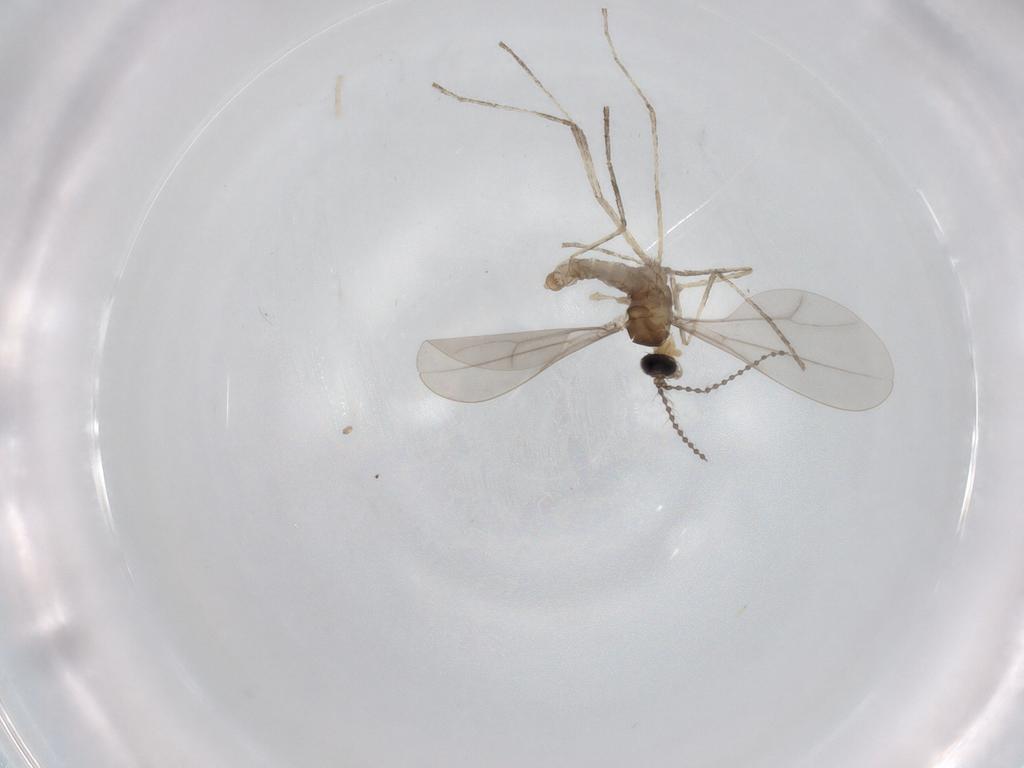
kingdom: Animalia
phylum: Arthropoda
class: Insecta
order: Diptera
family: Cecidomyiidae
